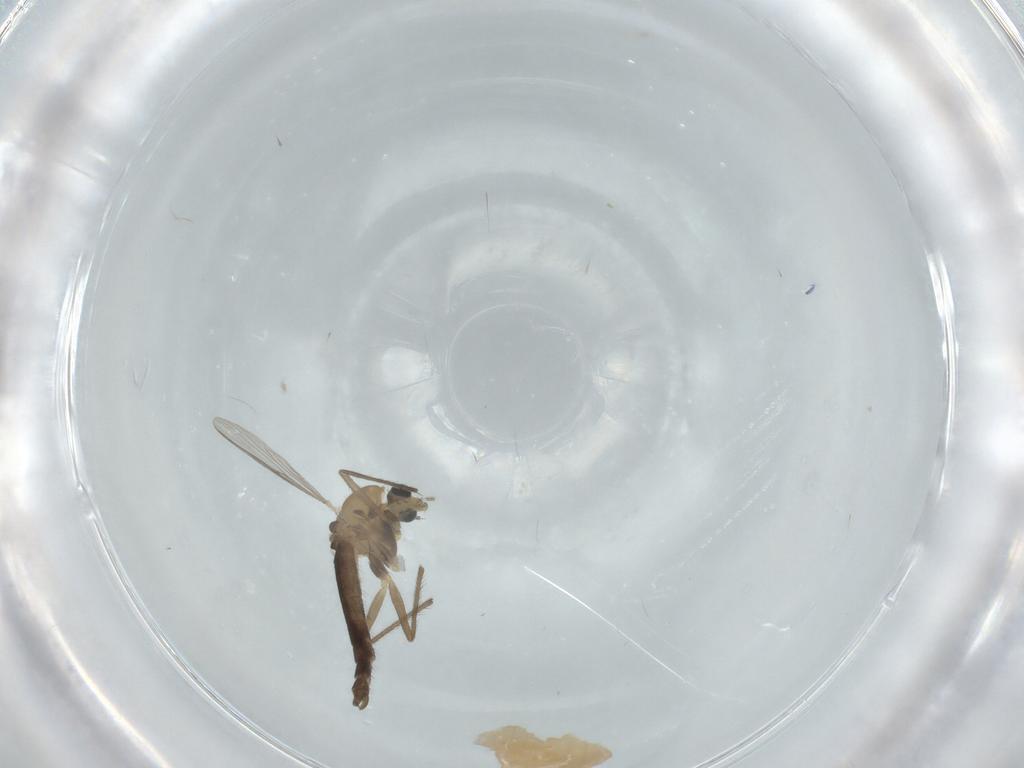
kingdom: Animalia
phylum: Arthropoda
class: Insecta
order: Diptera
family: Chironomidae
